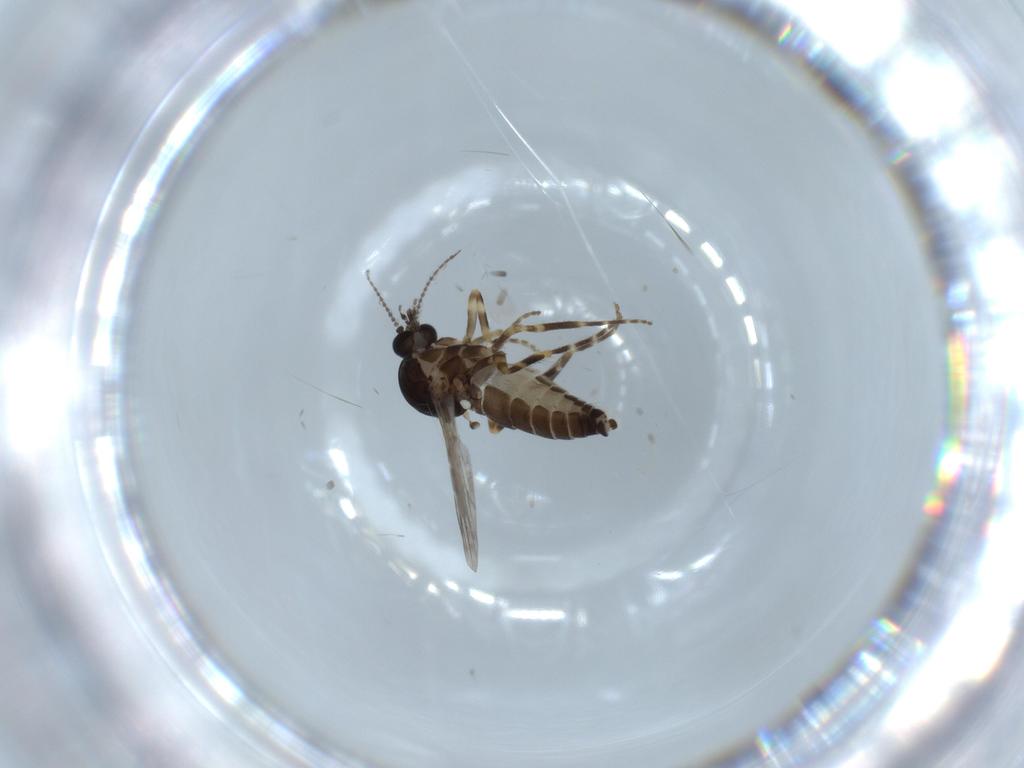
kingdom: Animalia
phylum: Arthropoda
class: Insecta
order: Diptera
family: Ceratopogonidae
